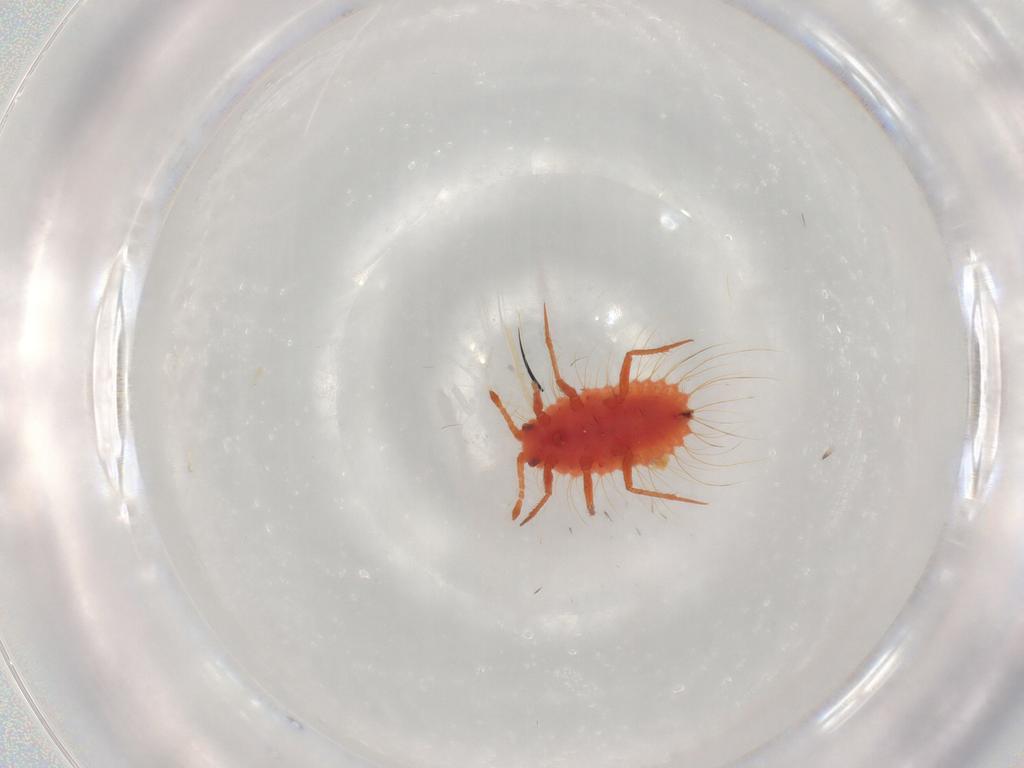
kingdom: Animalia
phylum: Arthropoda
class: Insecta
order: Hemiptera
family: Monophlebidae
